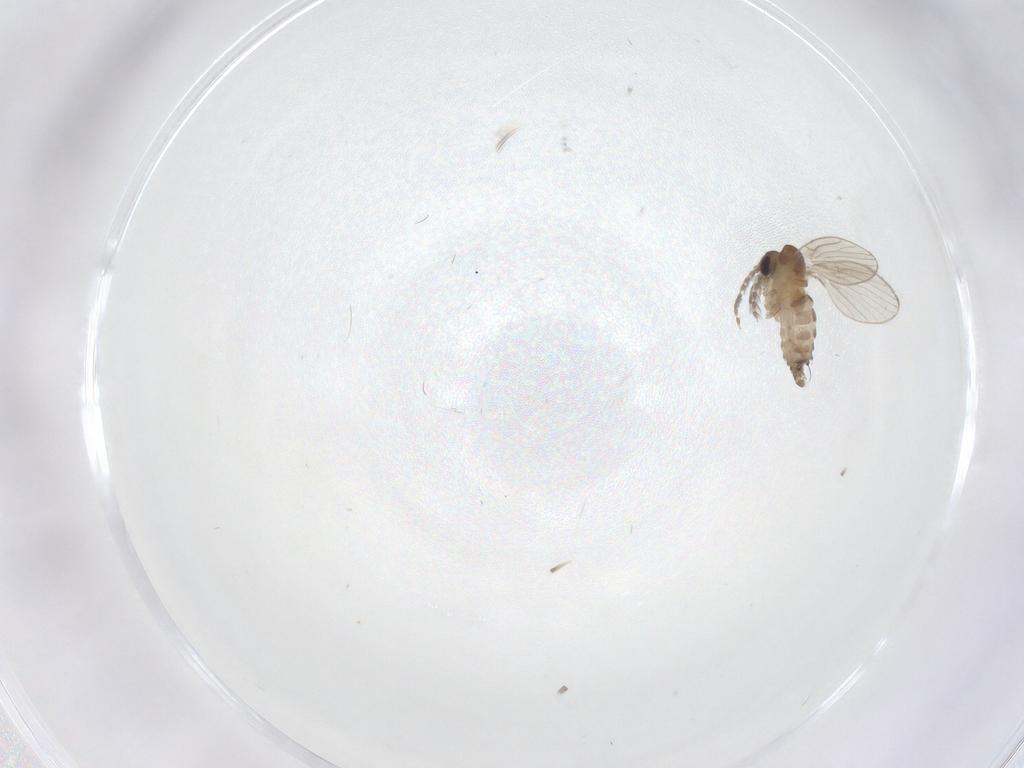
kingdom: Animalia
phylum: Arthropoda
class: Insecta
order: Diptera
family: Psychodidae
